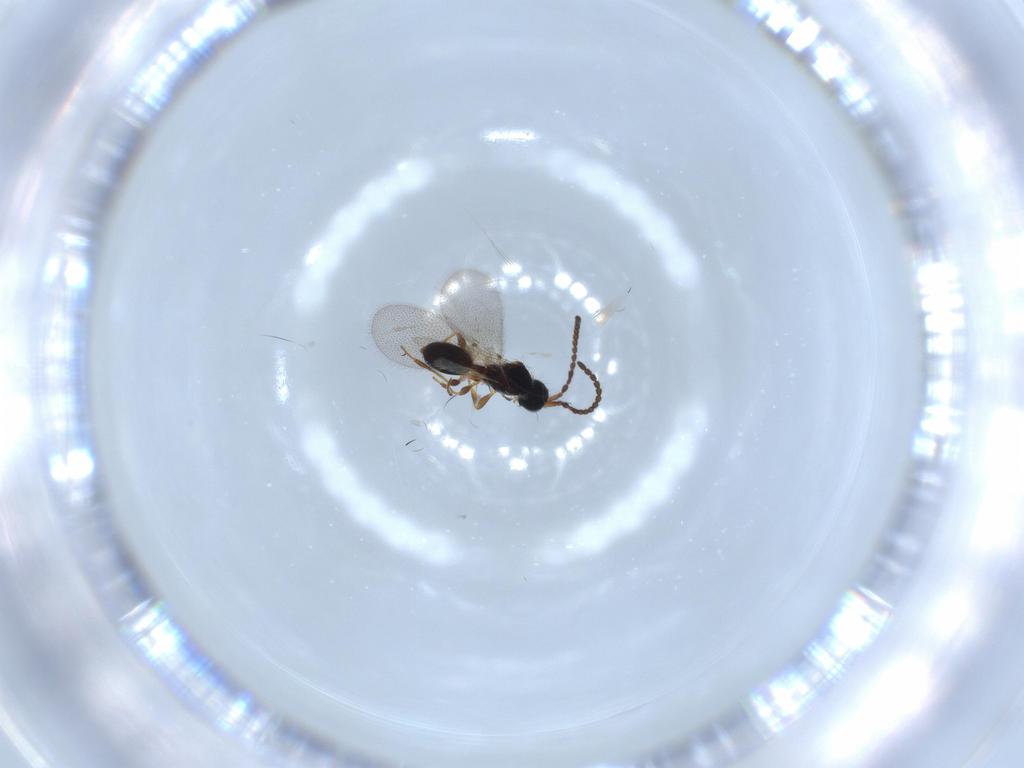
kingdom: Animalia
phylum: Arthropoda
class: Insecta
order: Hymenoptera
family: Diapriidae
